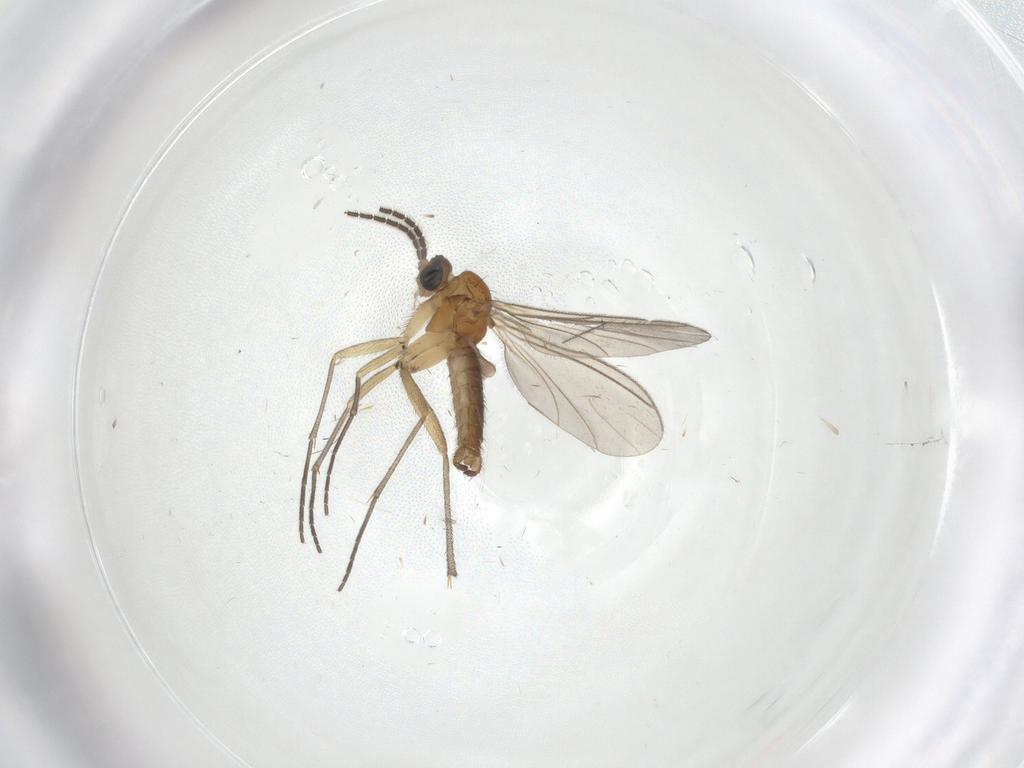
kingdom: Animalia
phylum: Arthropoda
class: Insecta
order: Diptera
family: Sciaridae
